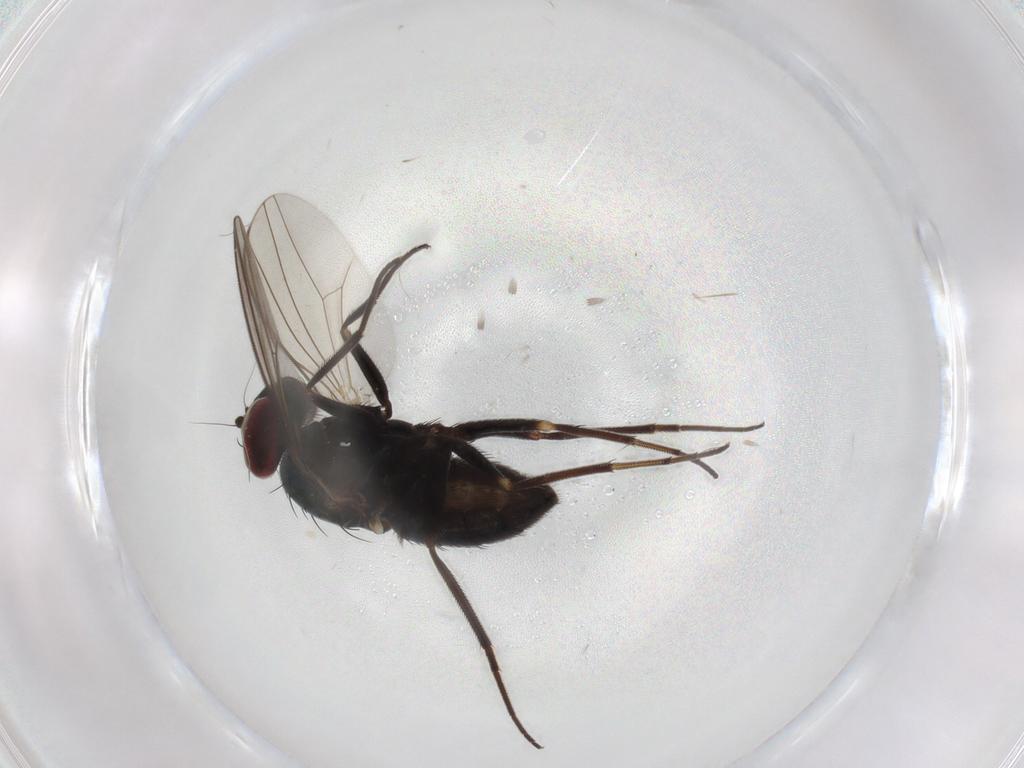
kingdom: Animalia
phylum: Arthropoda
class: Insecta
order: Diptera
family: Dolichopodidae
